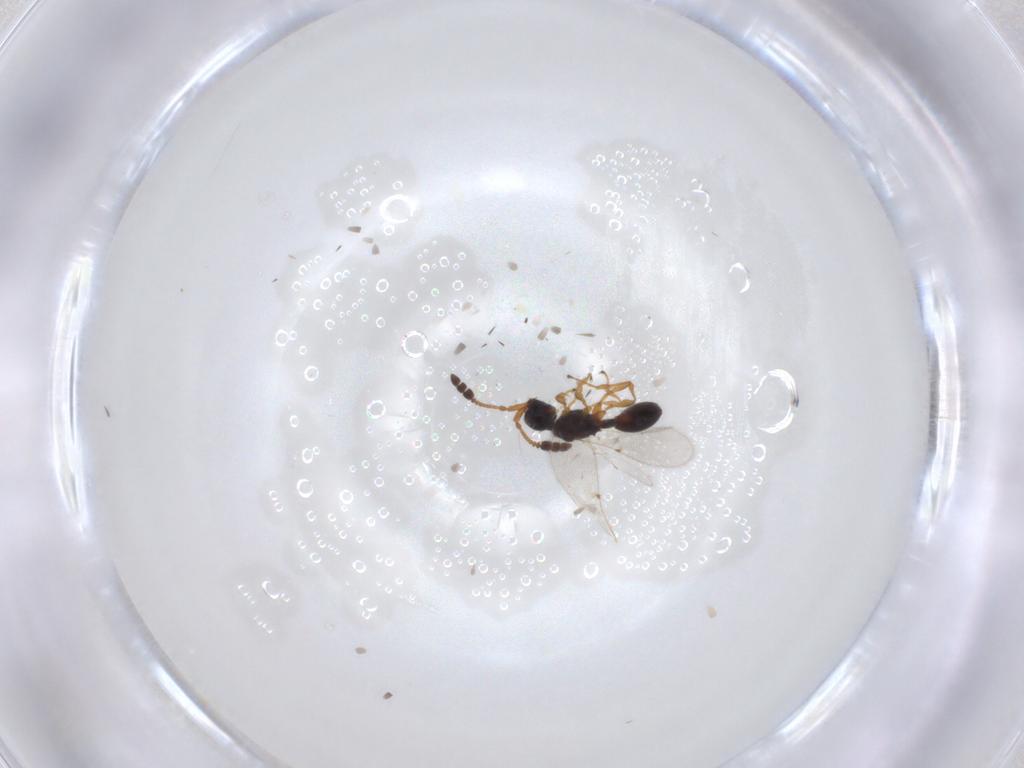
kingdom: Animalia
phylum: Arthropoda
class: Insecta
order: Hymenoptera
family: Diapriidae
